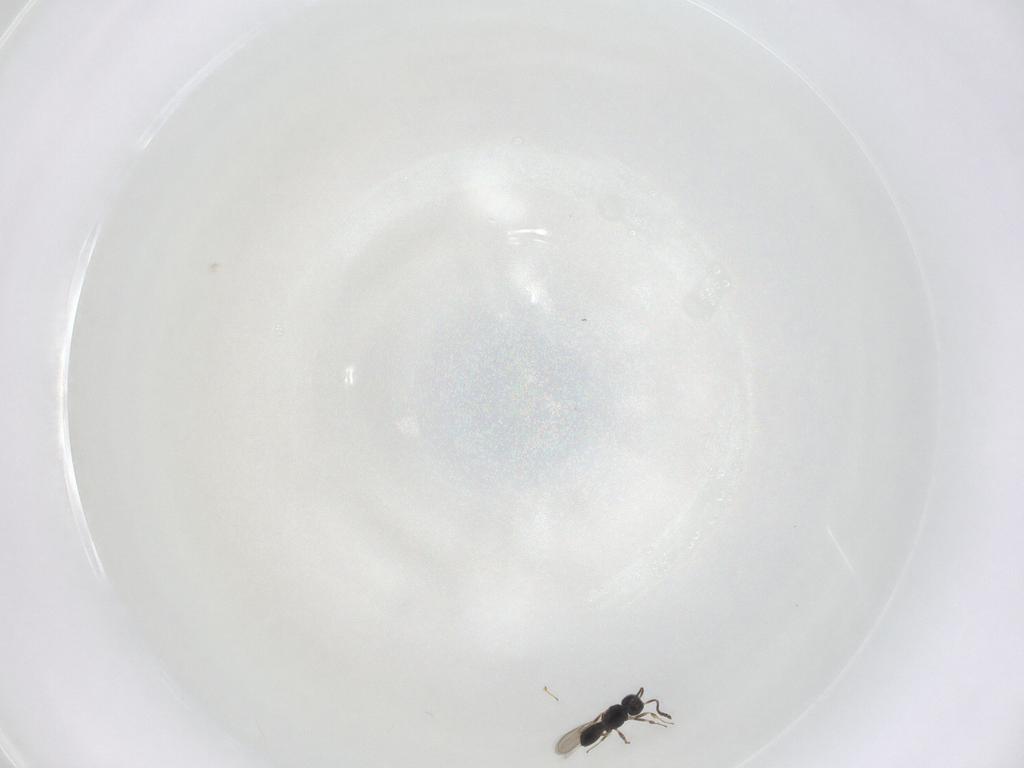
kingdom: Animalia
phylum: Arthropoda
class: Insecta
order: Hymenoptera
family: Scelionidae
